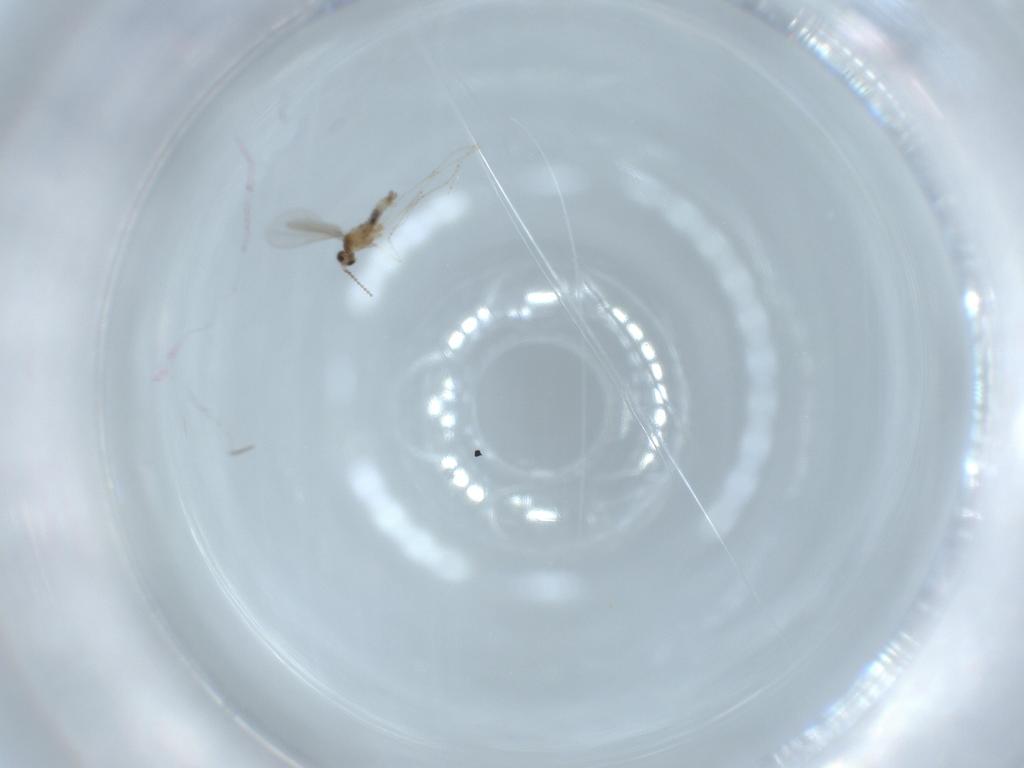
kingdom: Animalia
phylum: Arthropoda
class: Insecta
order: Diptera
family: Cecidomyiidae
